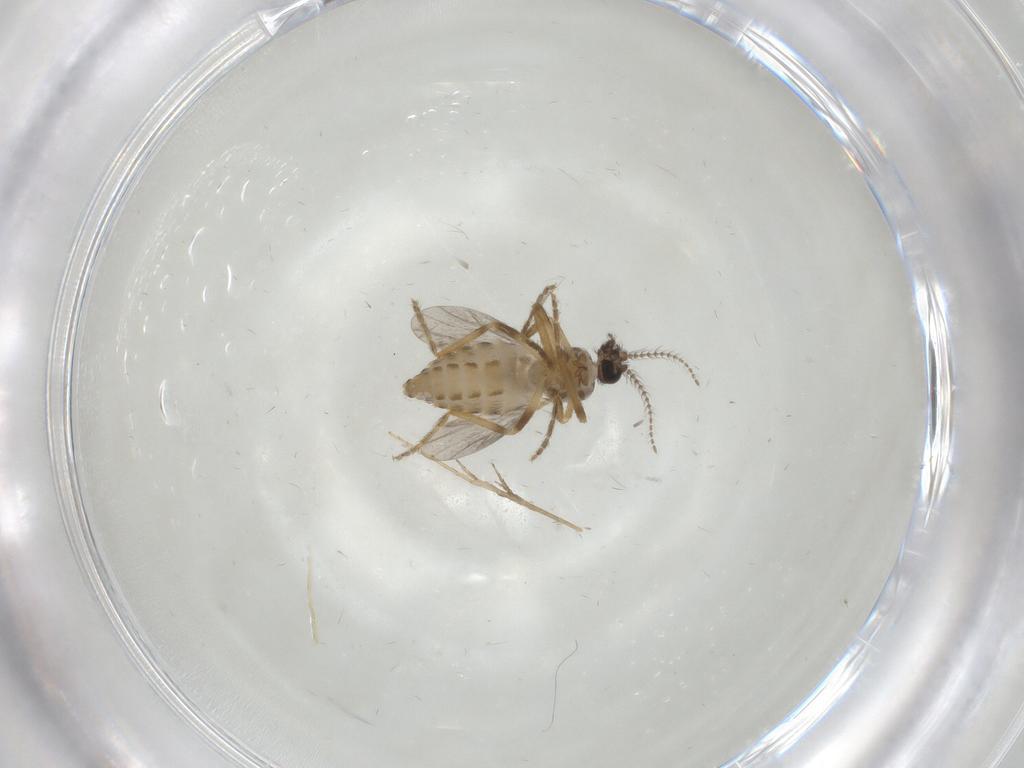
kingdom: Animalia
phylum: Arthropoda
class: Insecta
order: Diptera
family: Ceratopogonidae
